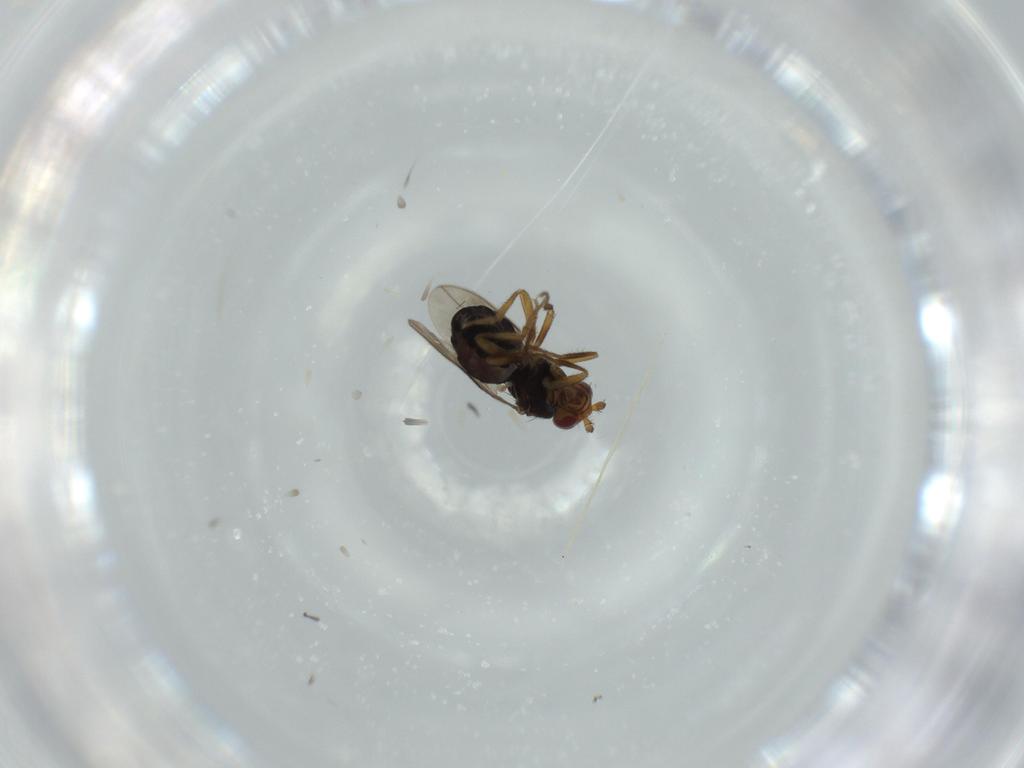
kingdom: Animalia
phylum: Arthropoda
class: Insecta
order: Diptera
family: Sphaeroceridae
